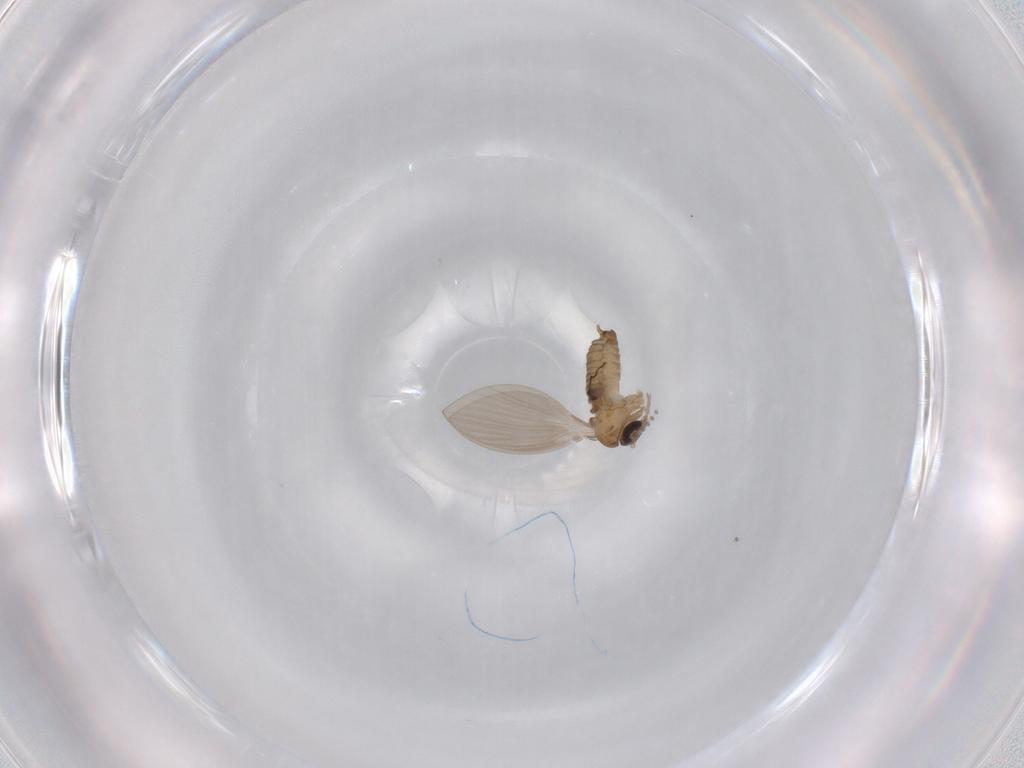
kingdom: Animalia
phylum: Arthropoda
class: Insecta
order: Diptera
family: Psychodidae
